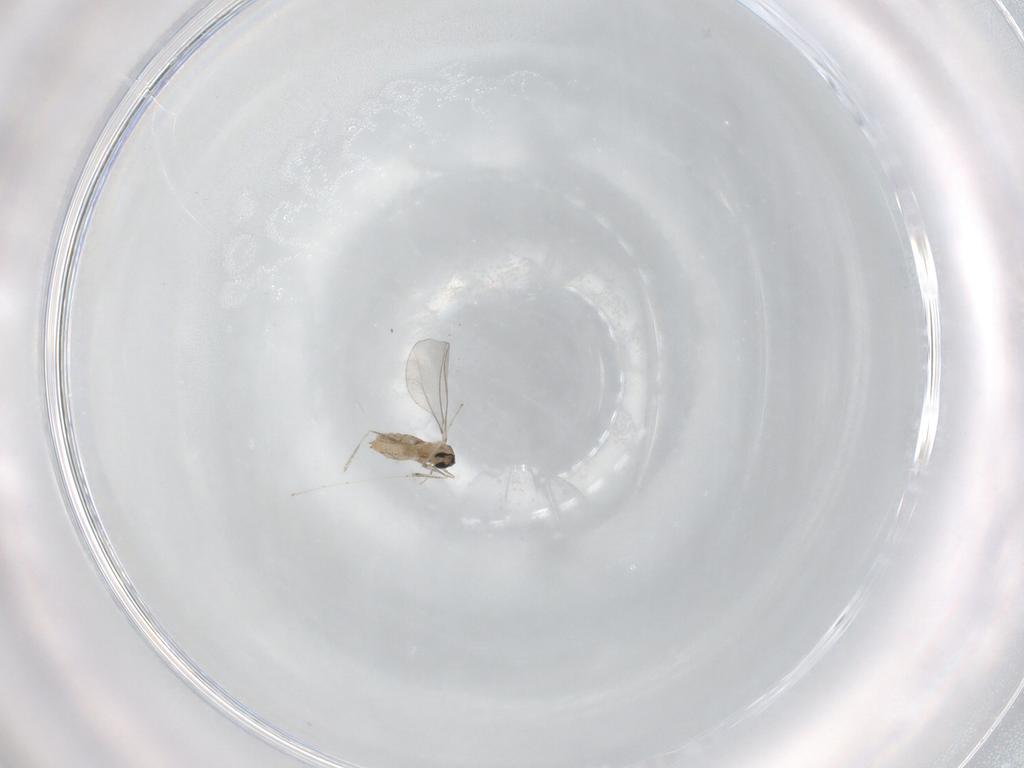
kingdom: Animalia
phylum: Arthropoda
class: Insecta
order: Diptera
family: Cecidomyiidae
